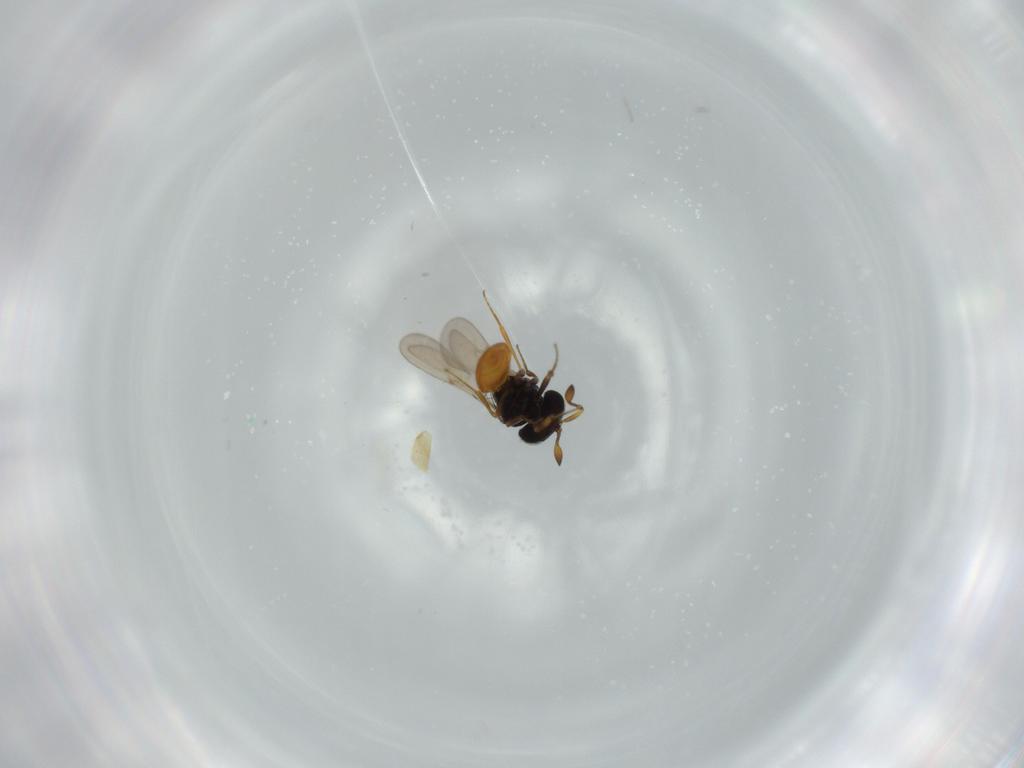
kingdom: Animalia
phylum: Arthropoda
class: Insecta
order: Hymenoptera
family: Scelionidae
